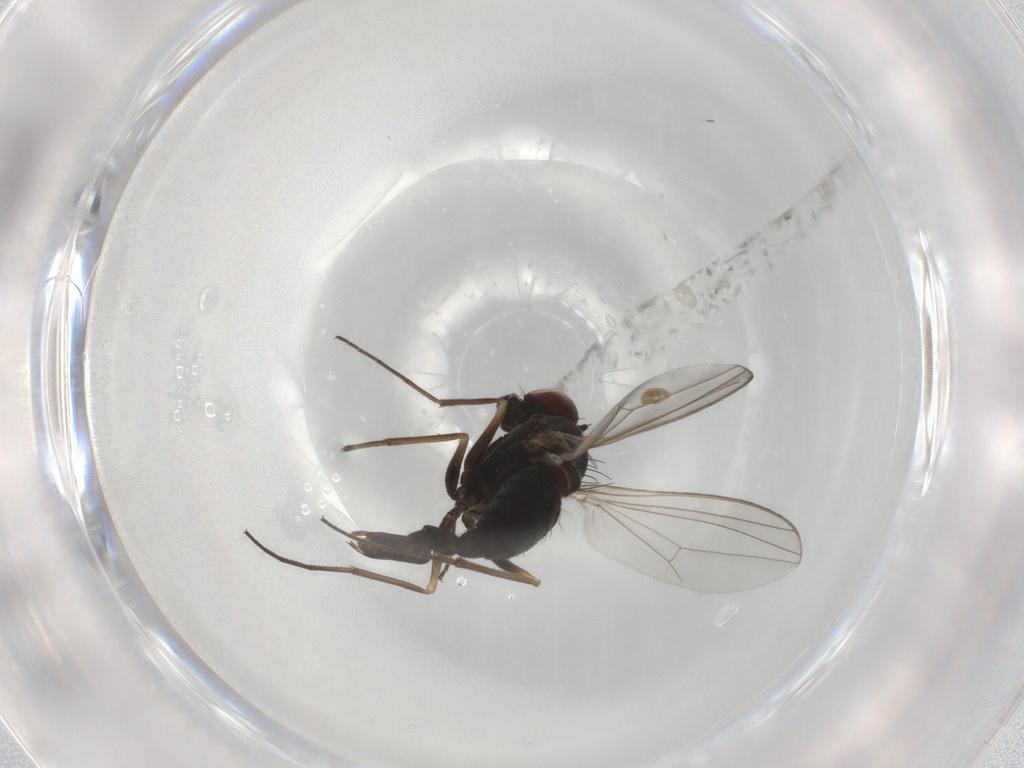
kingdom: Animalia
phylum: Arthropoda
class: Insecta
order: Diptera
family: Dolichopodidae
